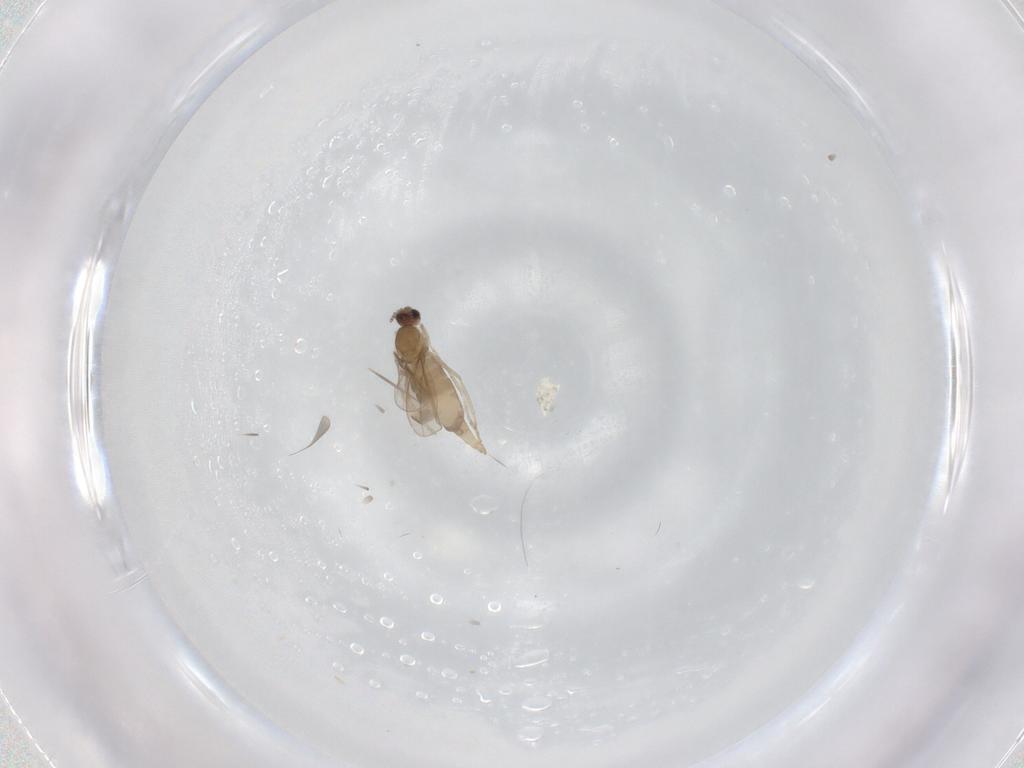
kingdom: Animalia
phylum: Arthropoda
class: Insecta
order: Diptera
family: Cecidomyiidae
